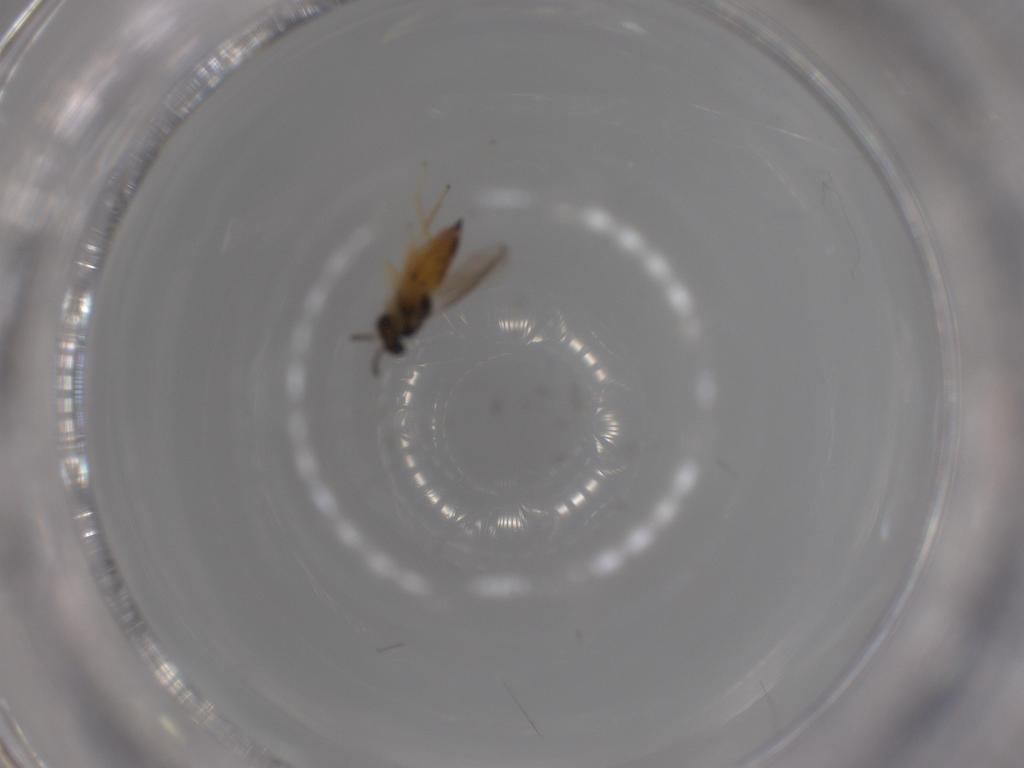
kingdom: Animalia
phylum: Arthropoda
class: Insecta
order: Hymenoptera
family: Eulophidae
